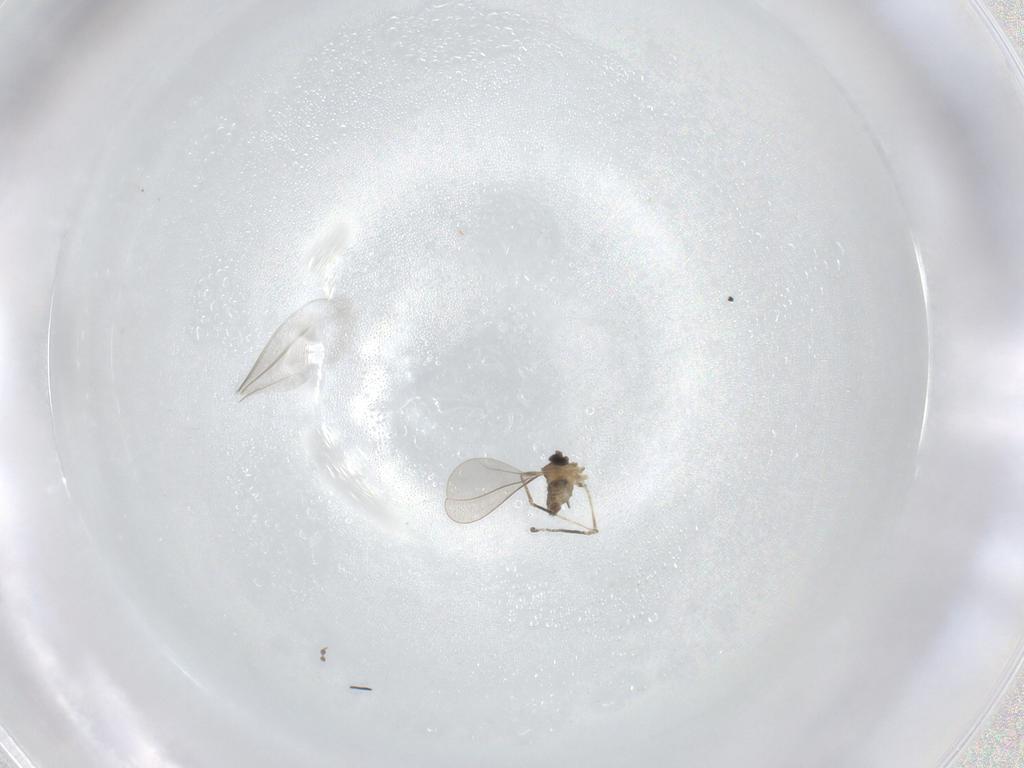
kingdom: Animalia
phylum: Arthropoda
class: Insecta
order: Diptera
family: Cecidomyiidae
